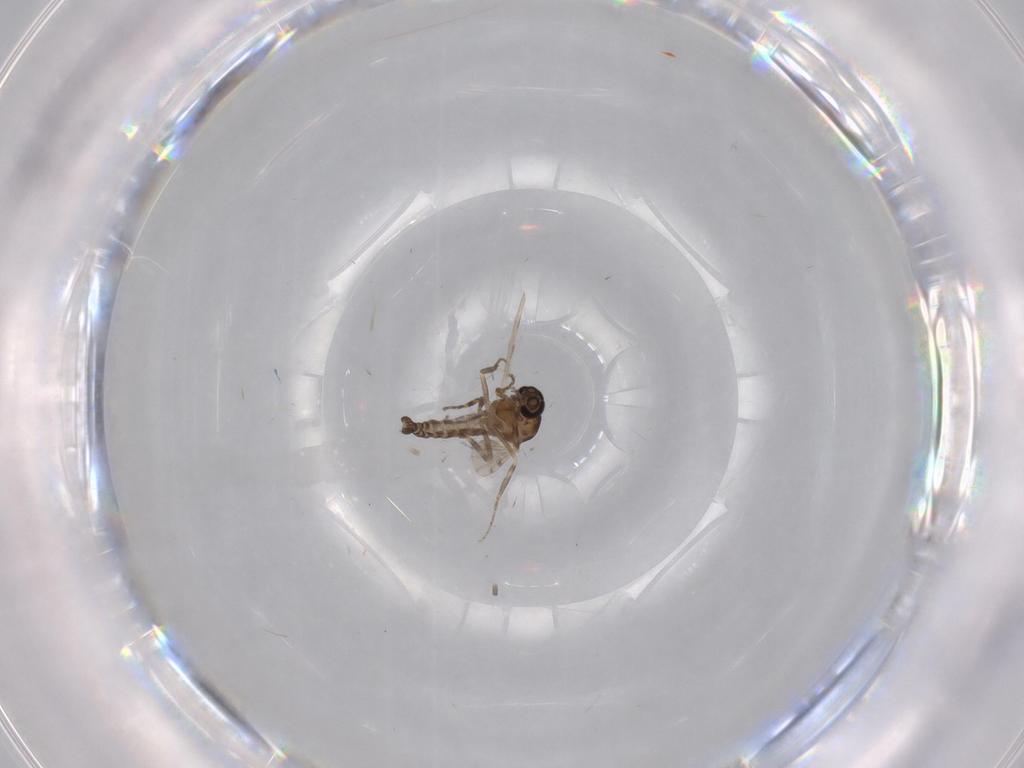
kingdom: Animalia
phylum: Arthropoda
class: Insecta
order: Diptera
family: Ceratopogonidae
